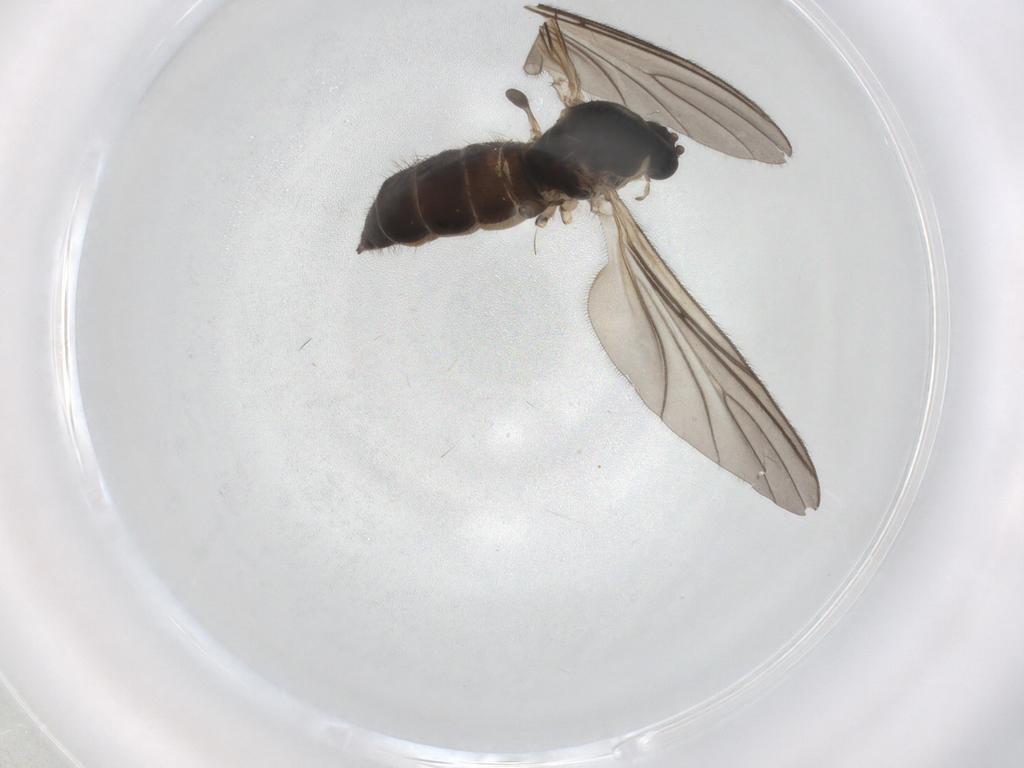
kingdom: Animalia
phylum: Arthropoda
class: Insecta
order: Diptera
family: Sciaridae
